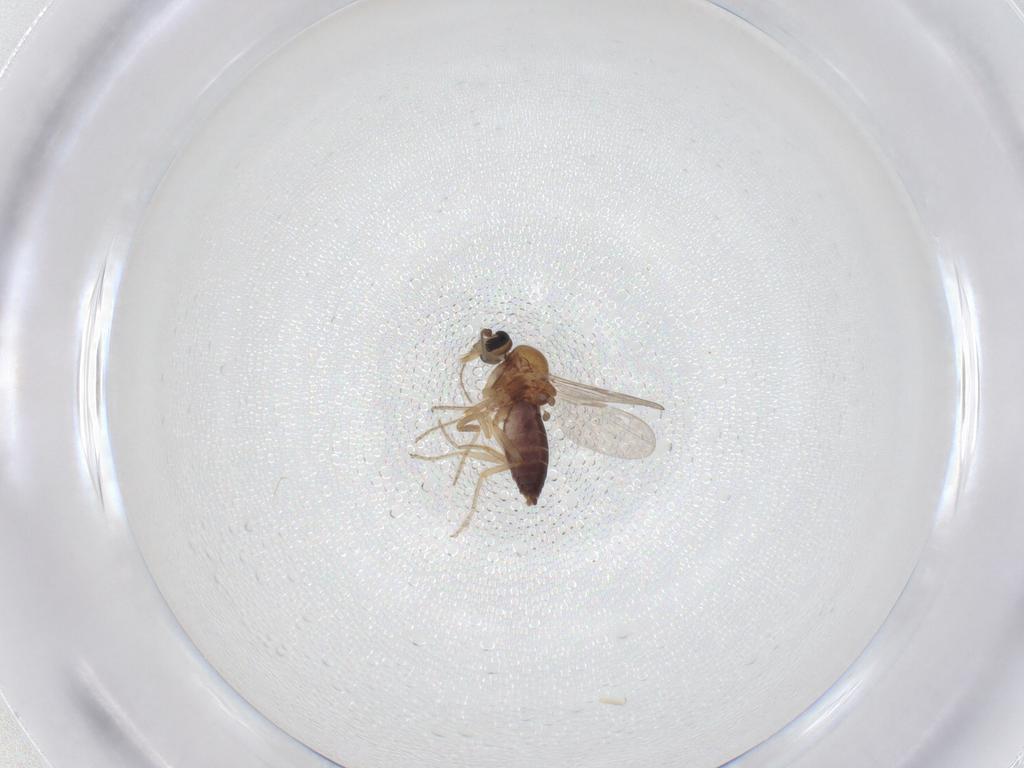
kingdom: Animalia
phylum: Arthropoda
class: Insecta
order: Diptera
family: Ceratopogonidae
